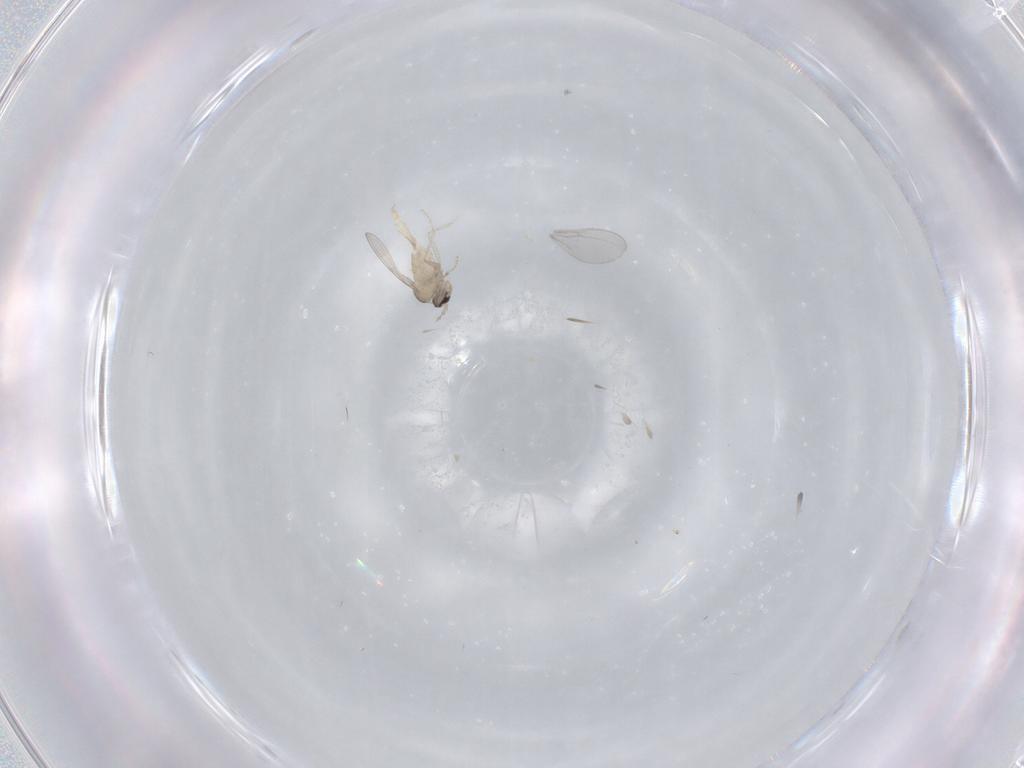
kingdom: Animalia
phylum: Arthropoda
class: Insecta
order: Diptera
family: Cecidomyiidae
